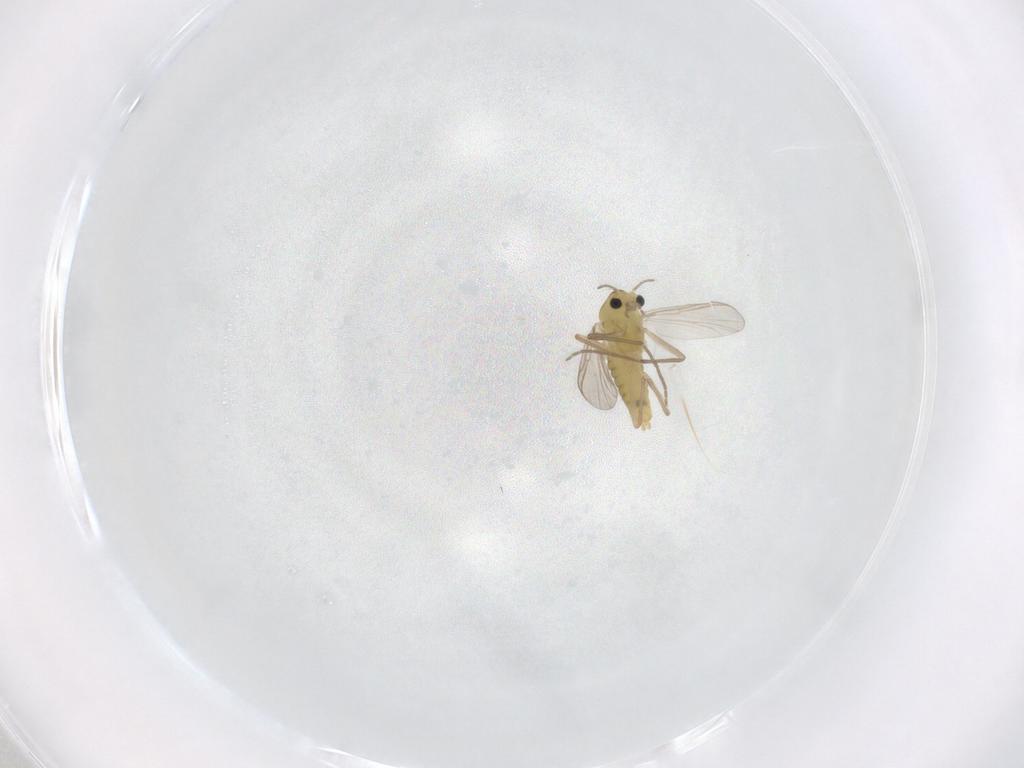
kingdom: Animalia
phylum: Arthropoda
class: Insecta
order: Diptera
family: Chironomidae
